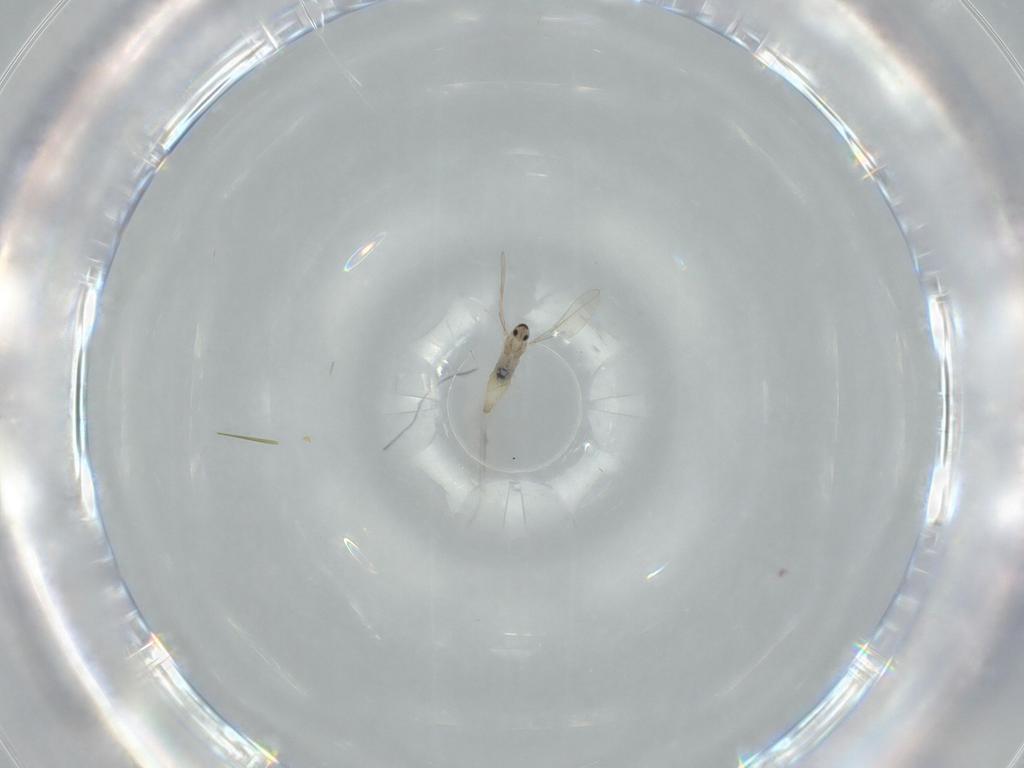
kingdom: Animalia
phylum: Arthropoda
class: Insecta
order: Diptera
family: Cecidomyiidae
